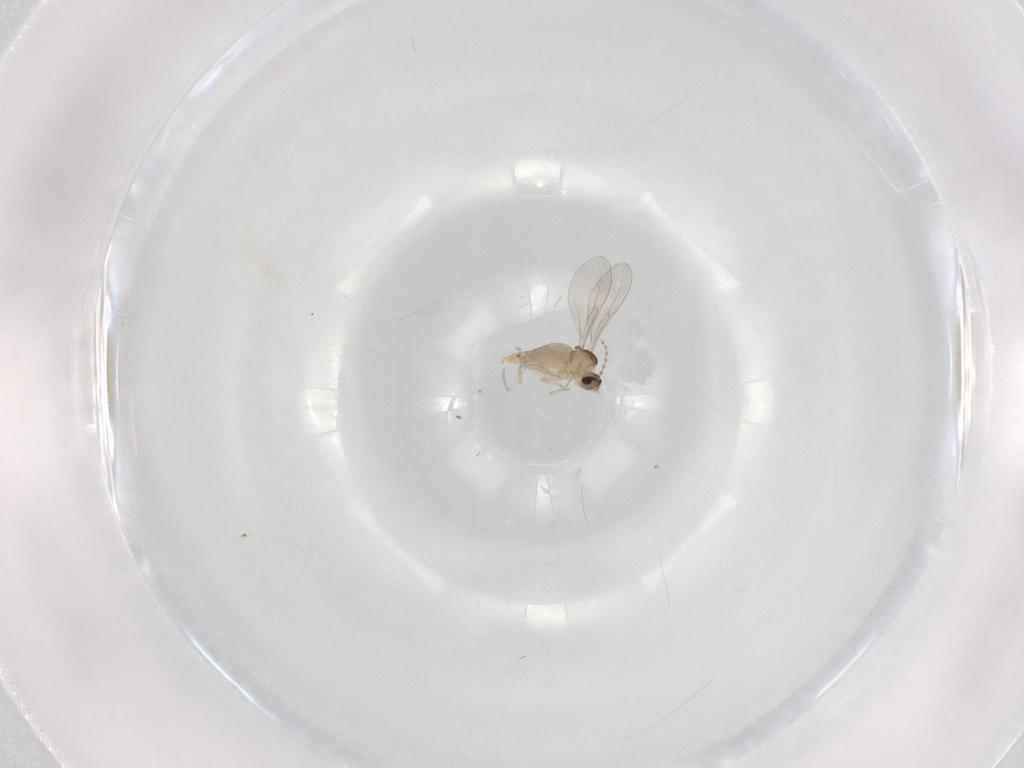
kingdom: Animalia
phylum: Arthropoda
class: Insecta
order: Diptera
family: Cecidomyiidae
